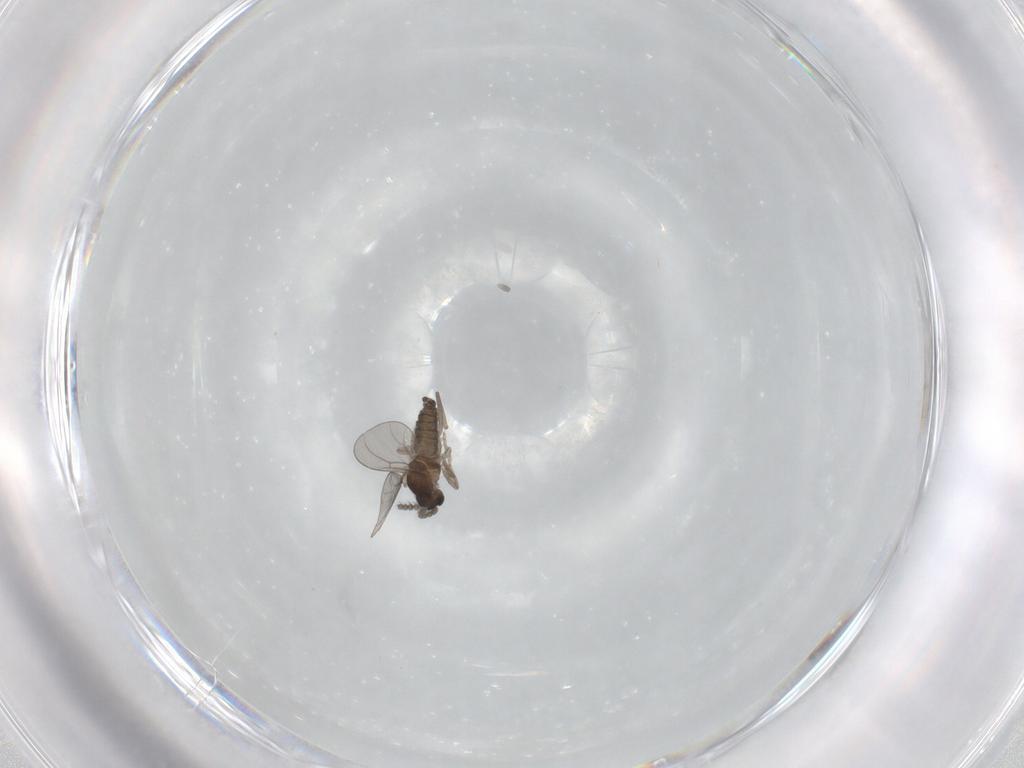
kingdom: Animalia
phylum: Arthropoda
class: Insecta
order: Diptera
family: Cecidomyiidae
